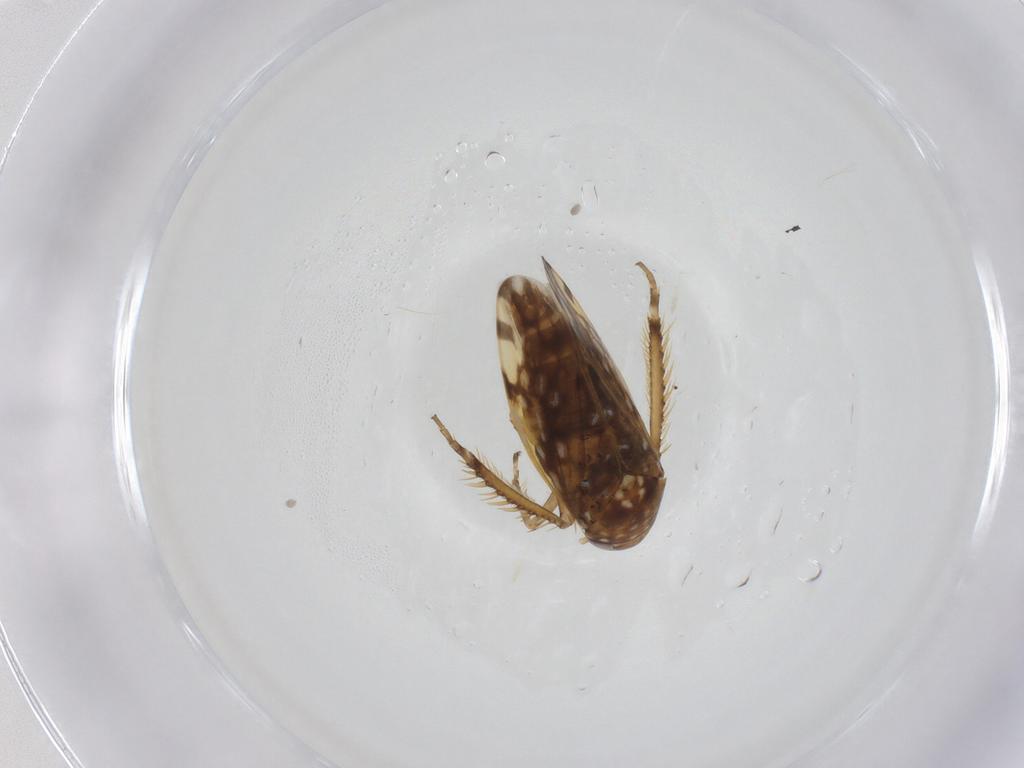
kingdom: Animalia
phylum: Arthropoda
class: Insecta
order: Hemiptera
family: Cicadellidae
